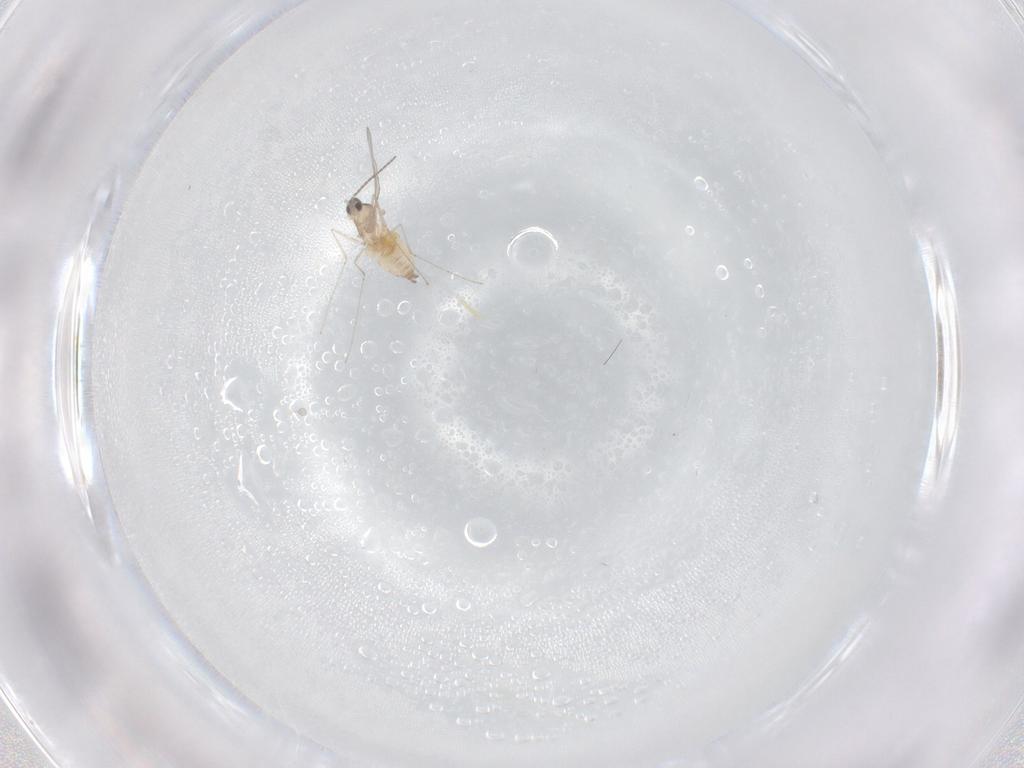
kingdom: Animalia
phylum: Arthropoda
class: Insecta
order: Diptera
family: Cecidomyiidae
